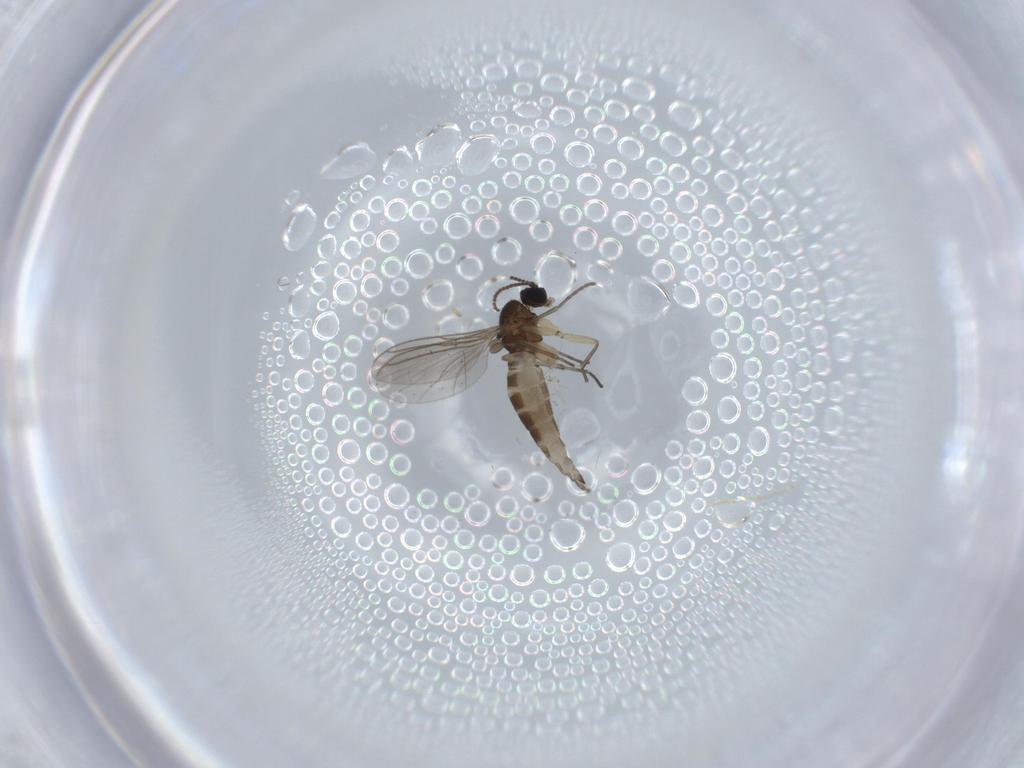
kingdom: Animalia
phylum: Arthropoda
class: Insecta
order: Diptera
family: Sciaridae
